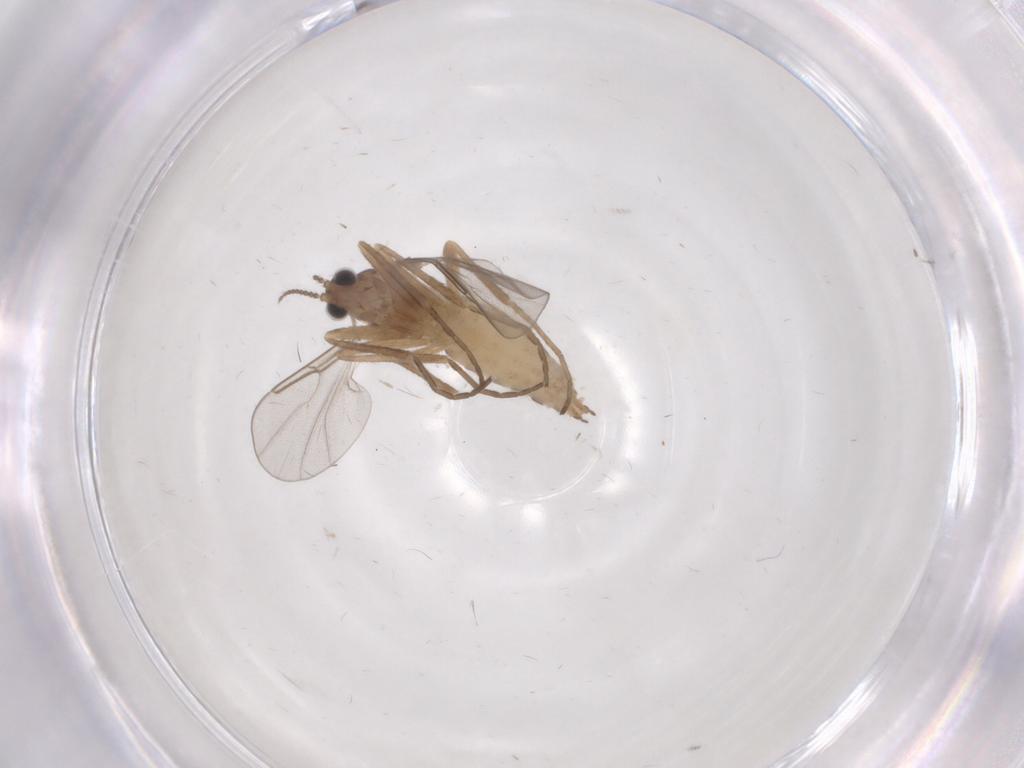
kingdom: Animalia
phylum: Arthropoda
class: Insecta
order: Diptera
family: Cecidomyiidae
